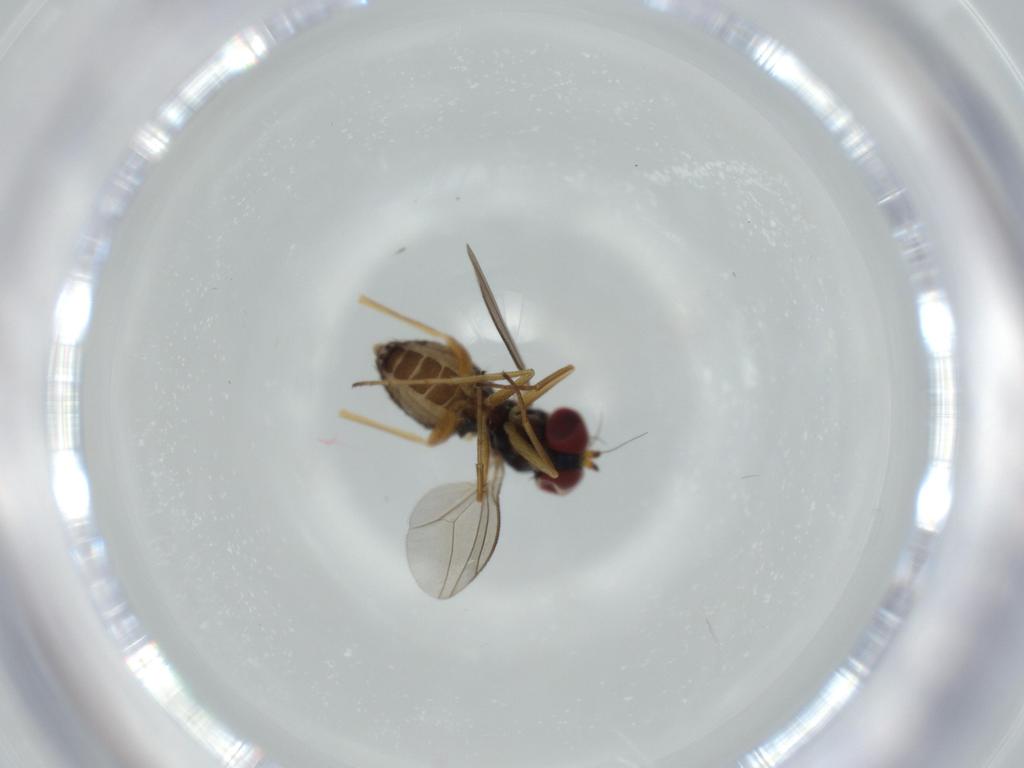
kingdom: Animalia
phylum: Arthropoda
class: Insecta
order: Diptera
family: Dolichopodidae
